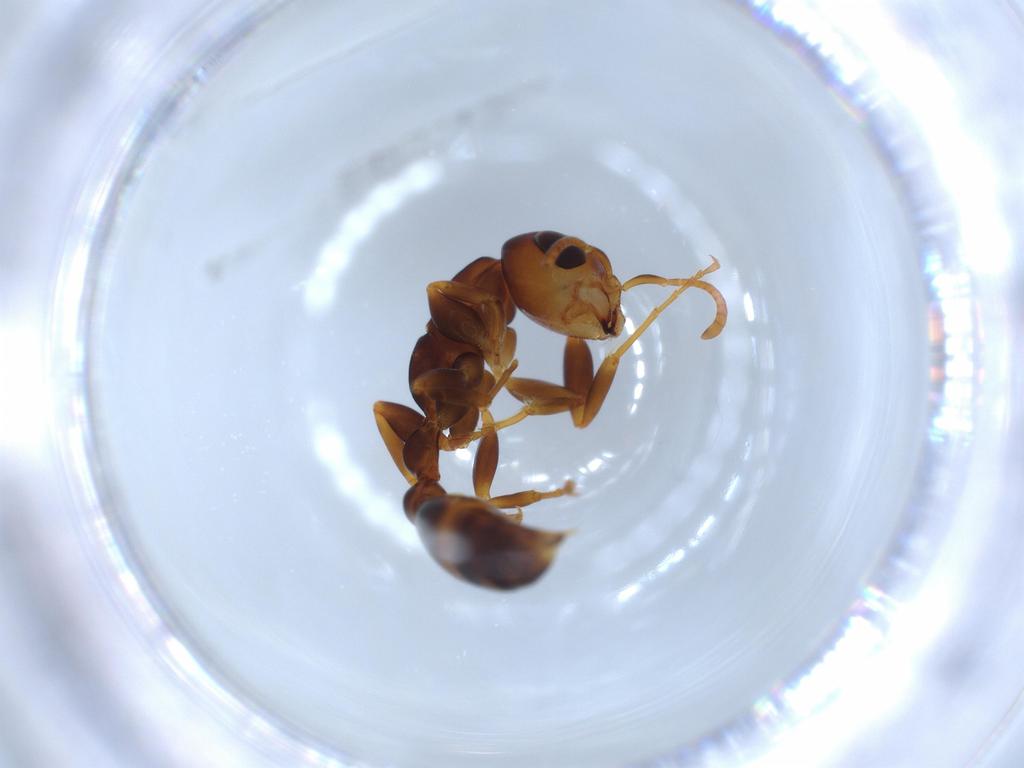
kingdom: Animalia
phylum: Arthropoda
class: Insecta
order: Hymenoptera
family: Formicidae
